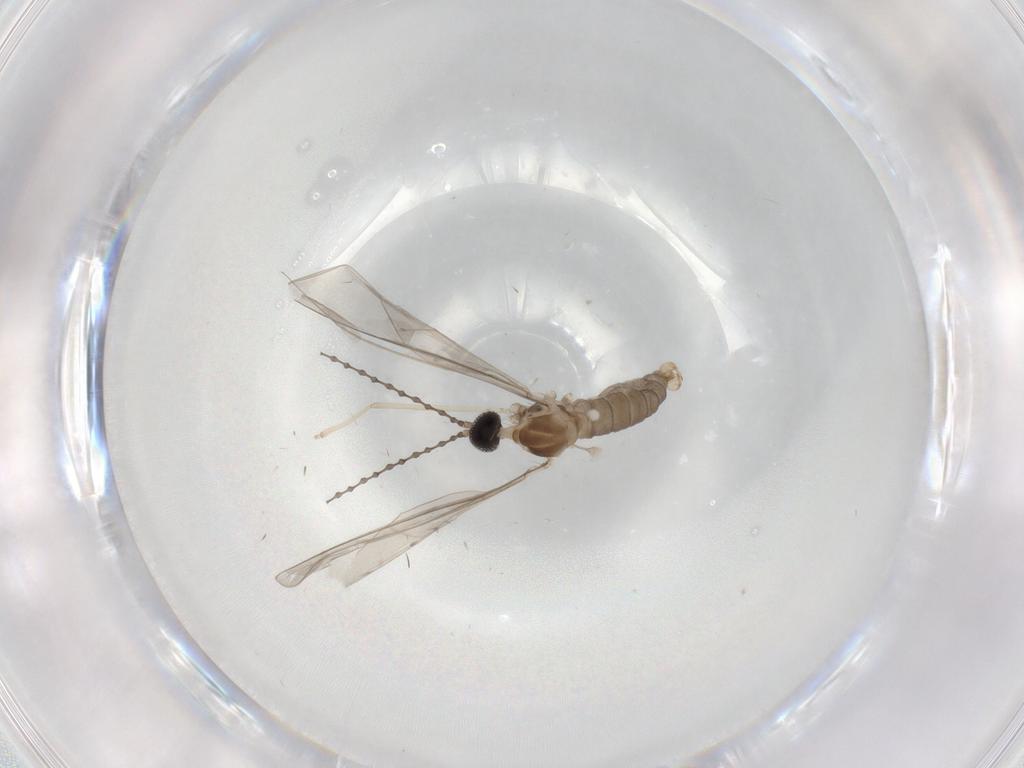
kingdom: Animalia
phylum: Arthropoda
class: Insecta
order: Diptera
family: Cecidomyiidae
